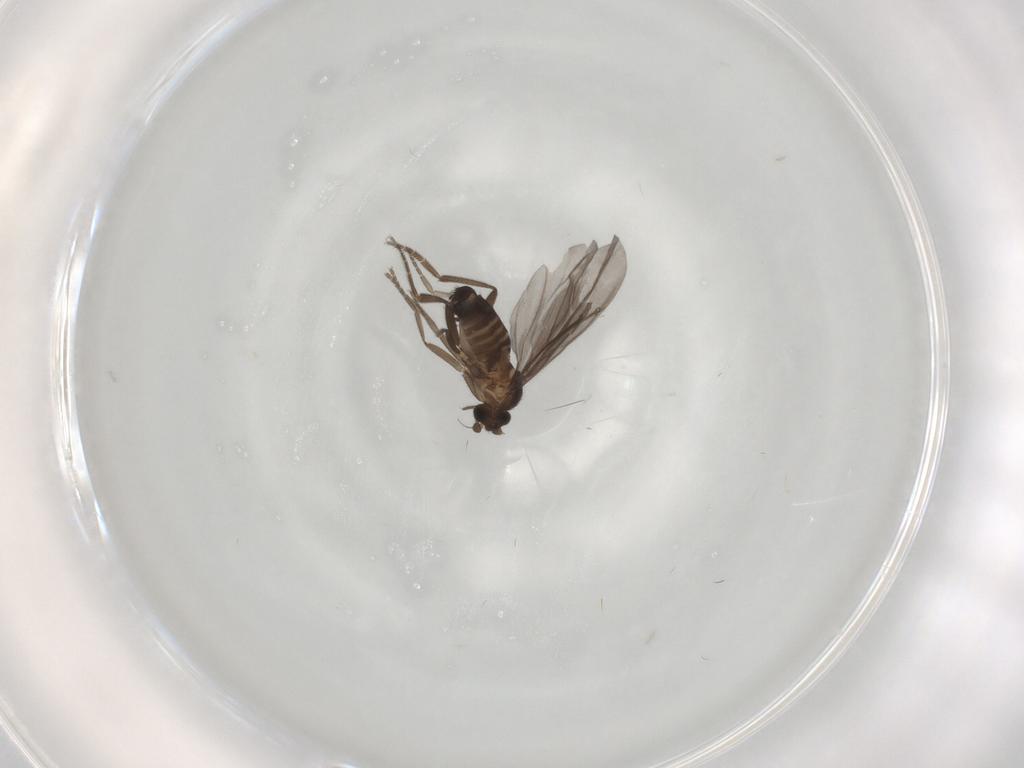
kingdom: Animalia
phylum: Arthropoda
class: Insecta
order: Diptera
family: Phoridae
